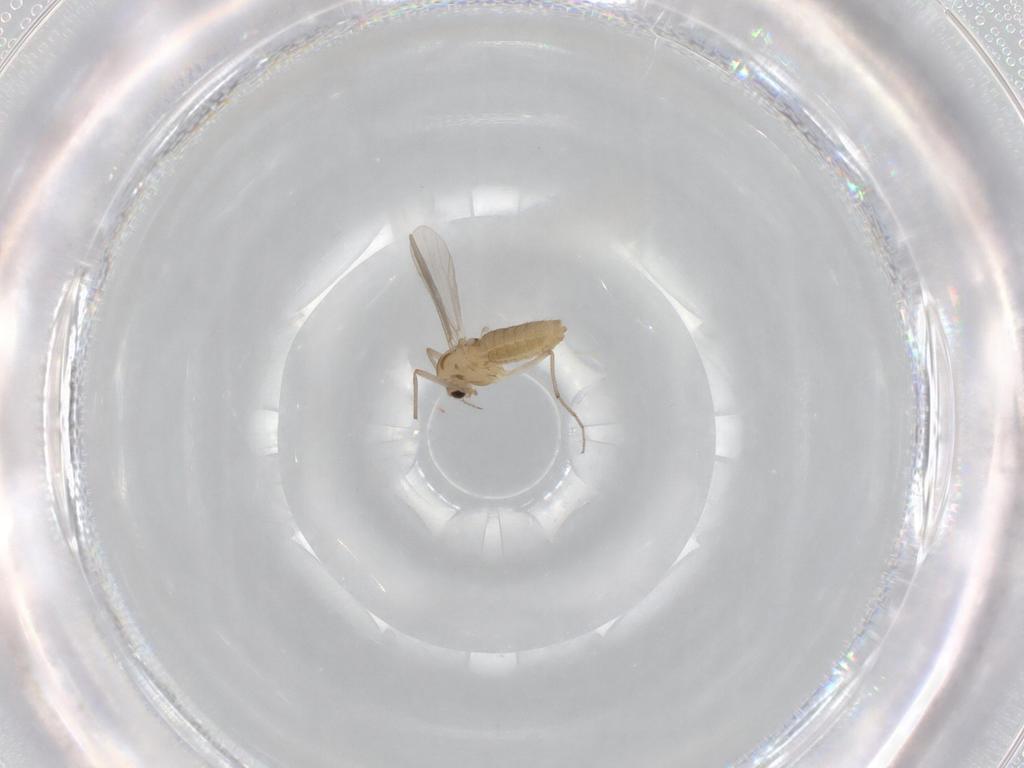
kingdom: Animalia
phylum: Arthropoda
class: Insecta
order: Diptera
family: Chironomidae
